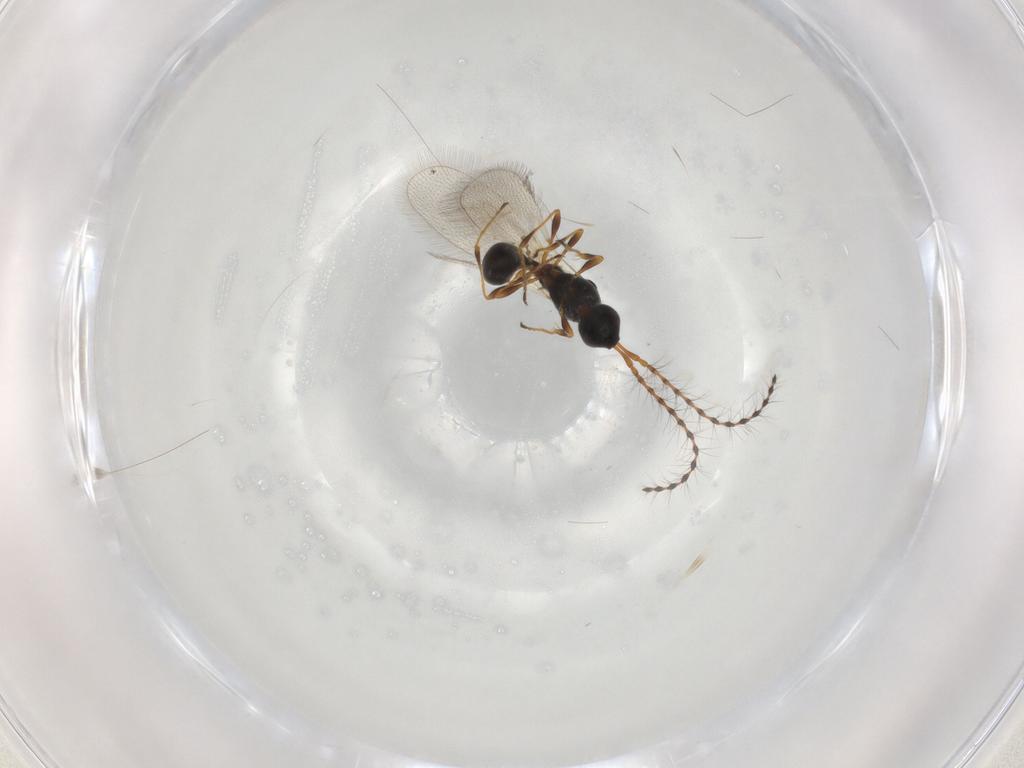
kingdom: Animalia
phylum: Arthropoda
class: Insecta
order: Hymenoptera
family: Diapriidae
